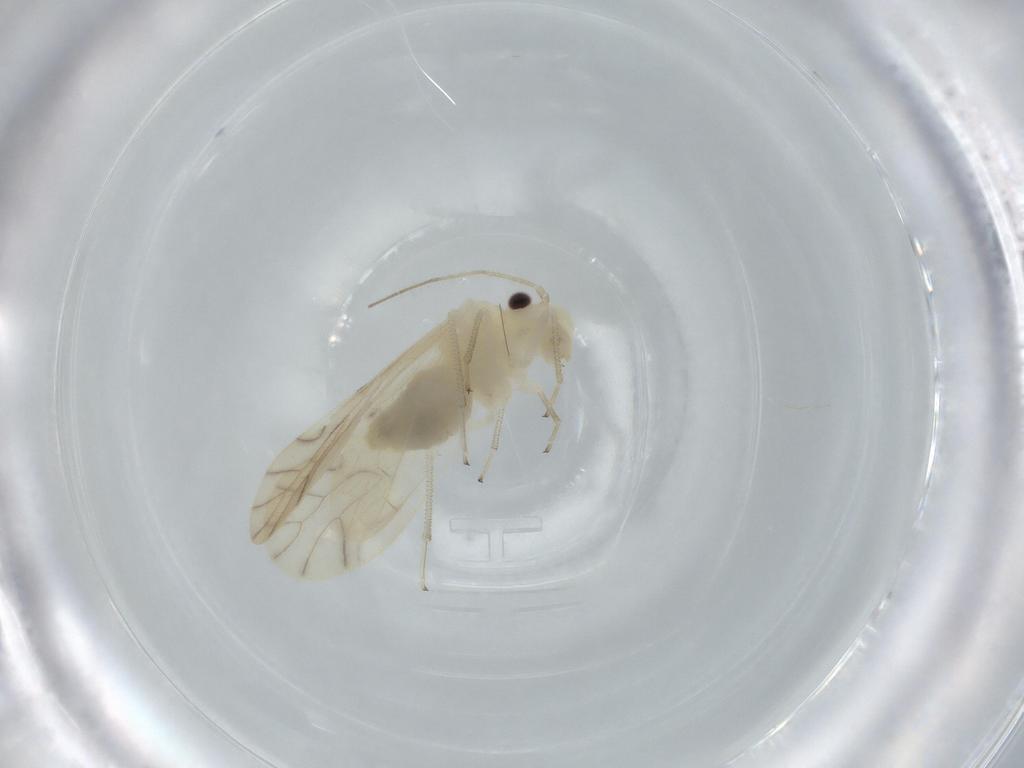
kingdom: Animalia
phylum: Arthropoda
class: Insecta
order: Psocodea
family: Caeciliusidae
